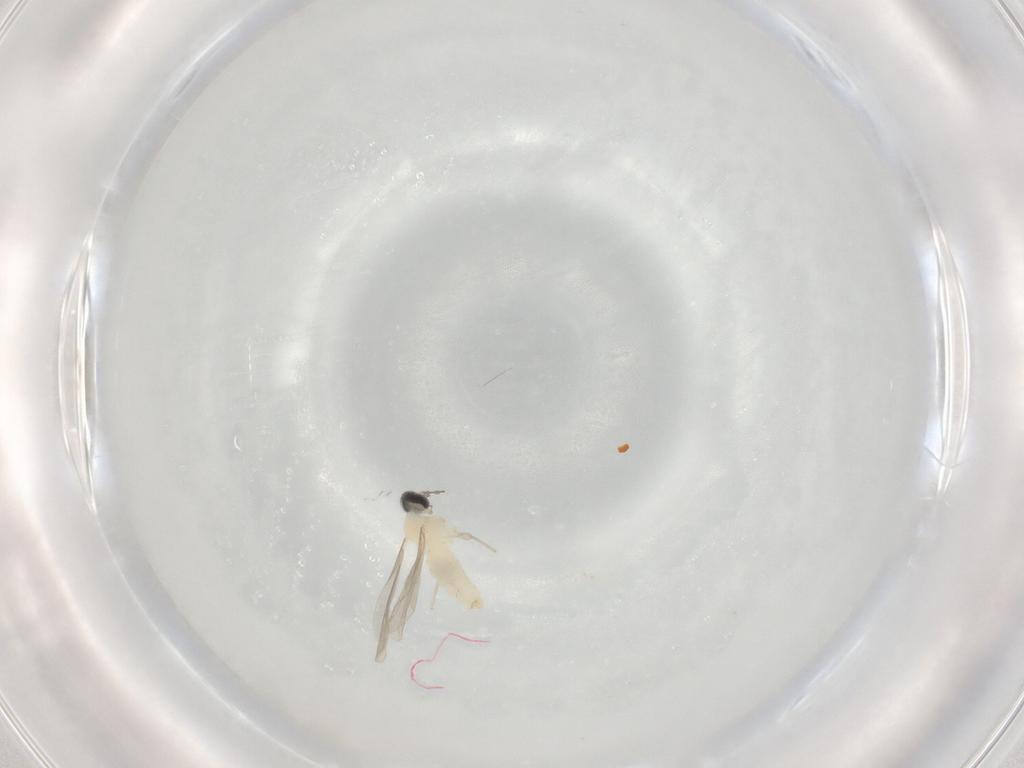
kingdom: Animalia
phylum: Arthropoda
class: Insecta
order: Diptera
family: Cecidomyiidae
